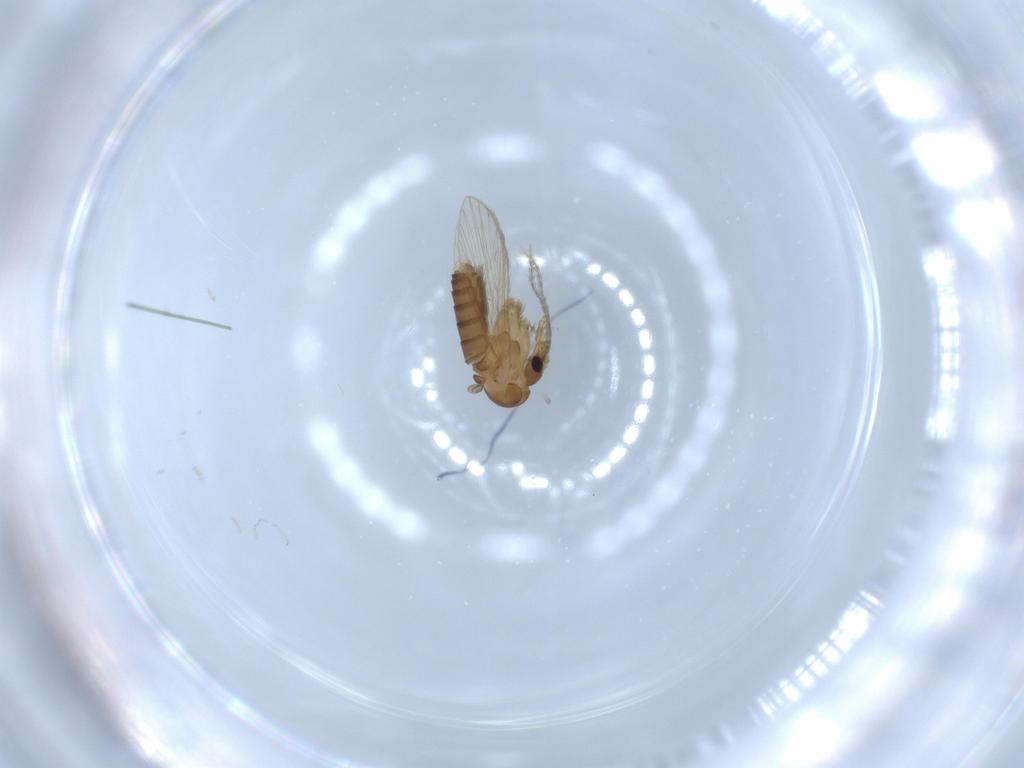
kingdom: Animalia
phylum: Arthropoda
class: Insecta
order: Diptera
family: Psychodidae
